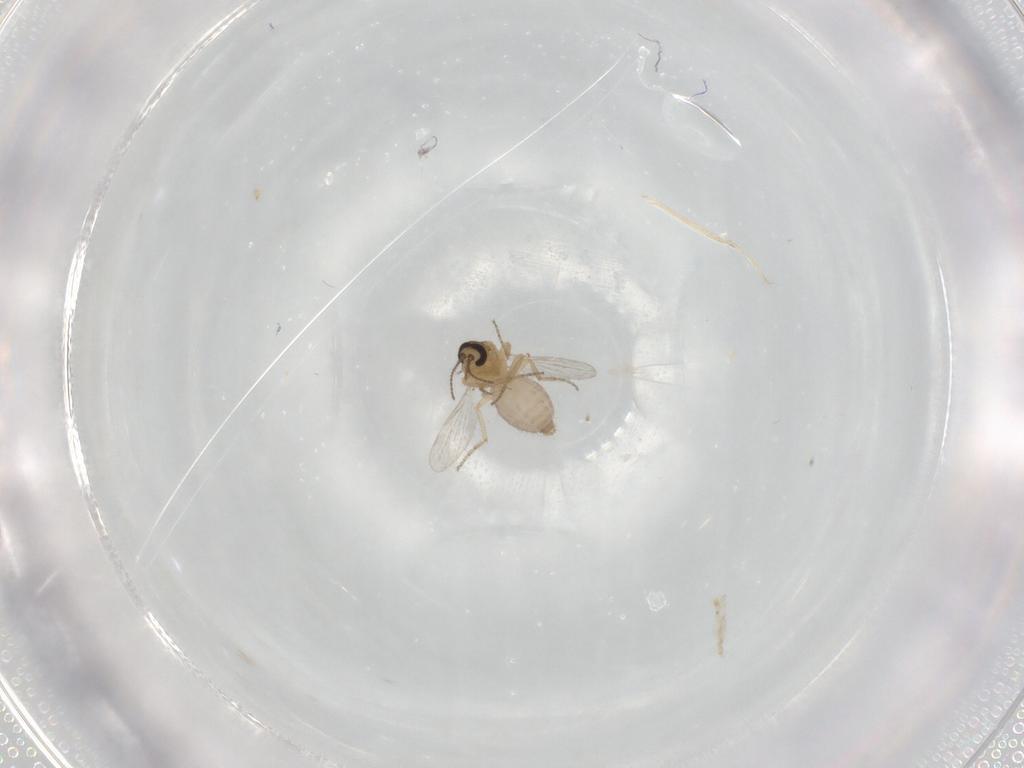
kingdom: Animalia
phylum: Arthropoda
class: Insecta
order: Diptera
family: Ceratopogonidae
